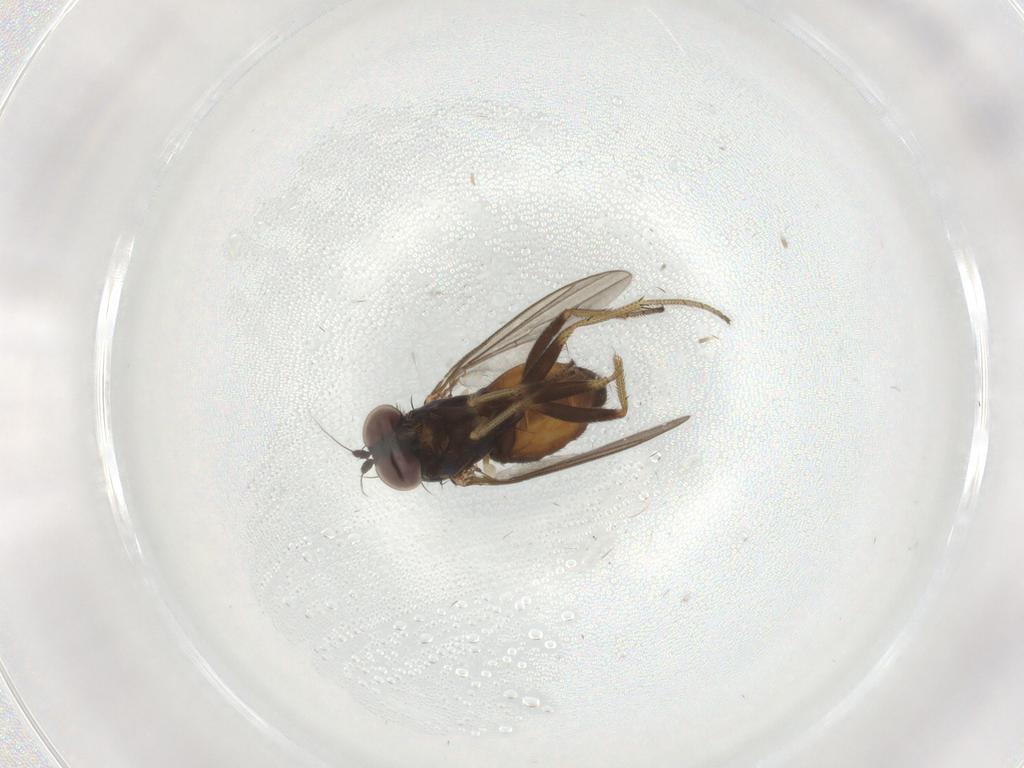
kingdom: Animalia
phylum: Arthropoda
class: Insecta
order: Diptera
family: Dolichopodidae
